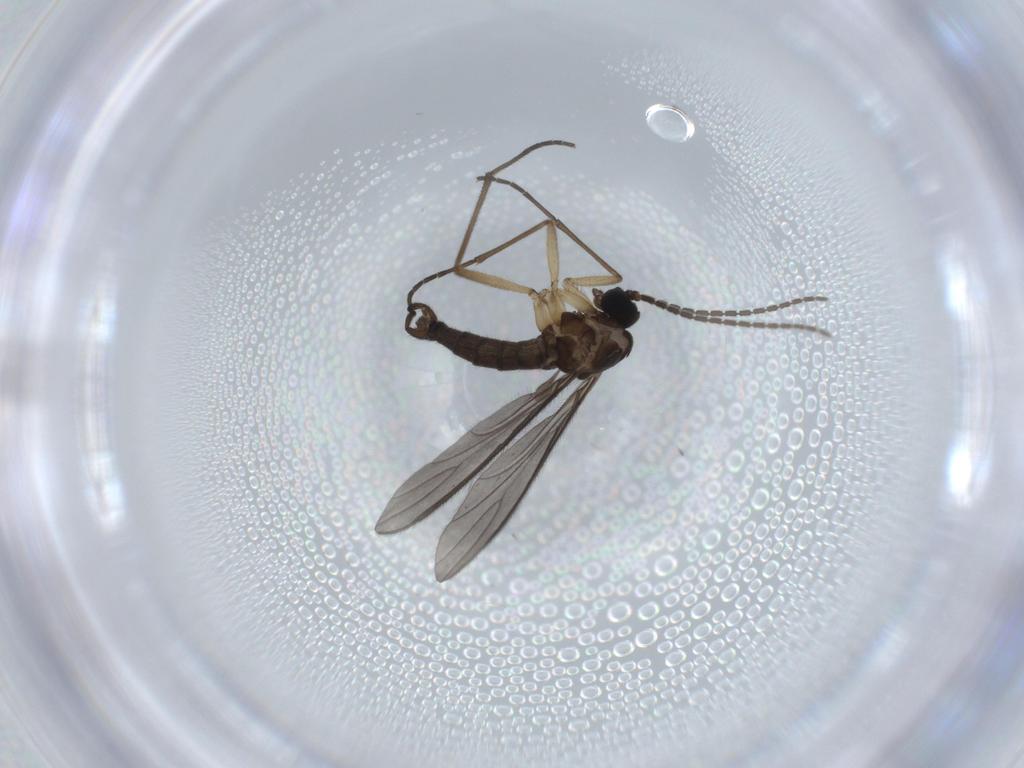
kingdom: Animalia
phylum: Arthropoda
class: Insecta
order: Diptera
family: Sciaridae
